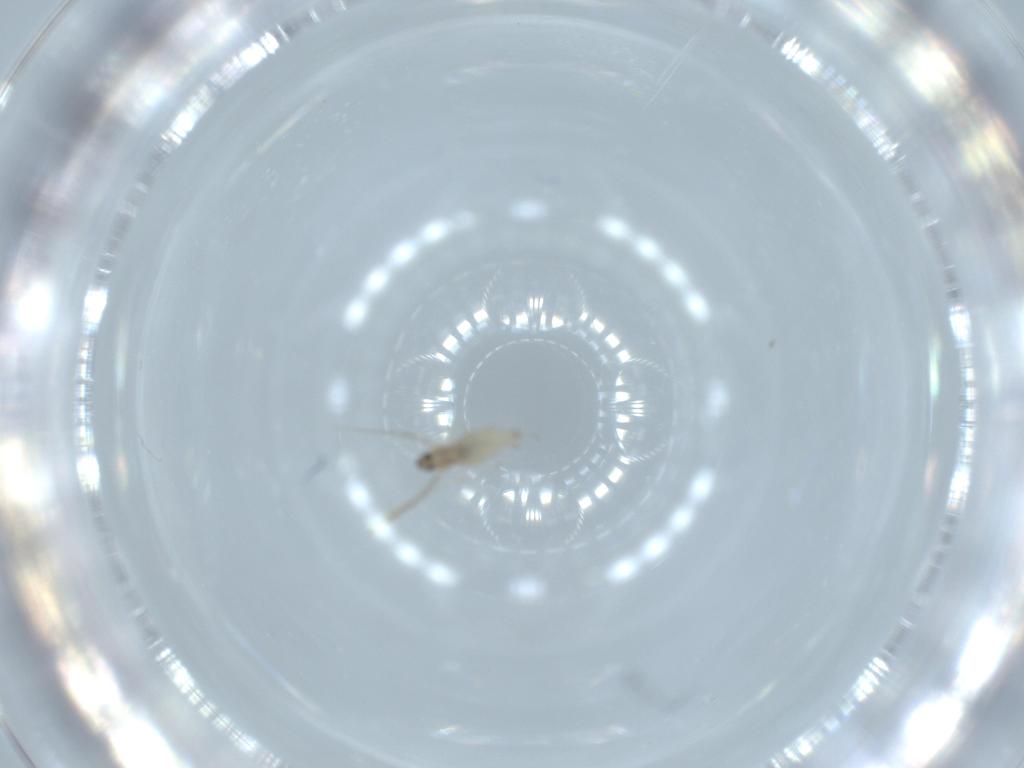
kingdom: Animalia
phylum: Arthropoda
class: Insecta
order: Diptera
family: Cecidomyiidae
